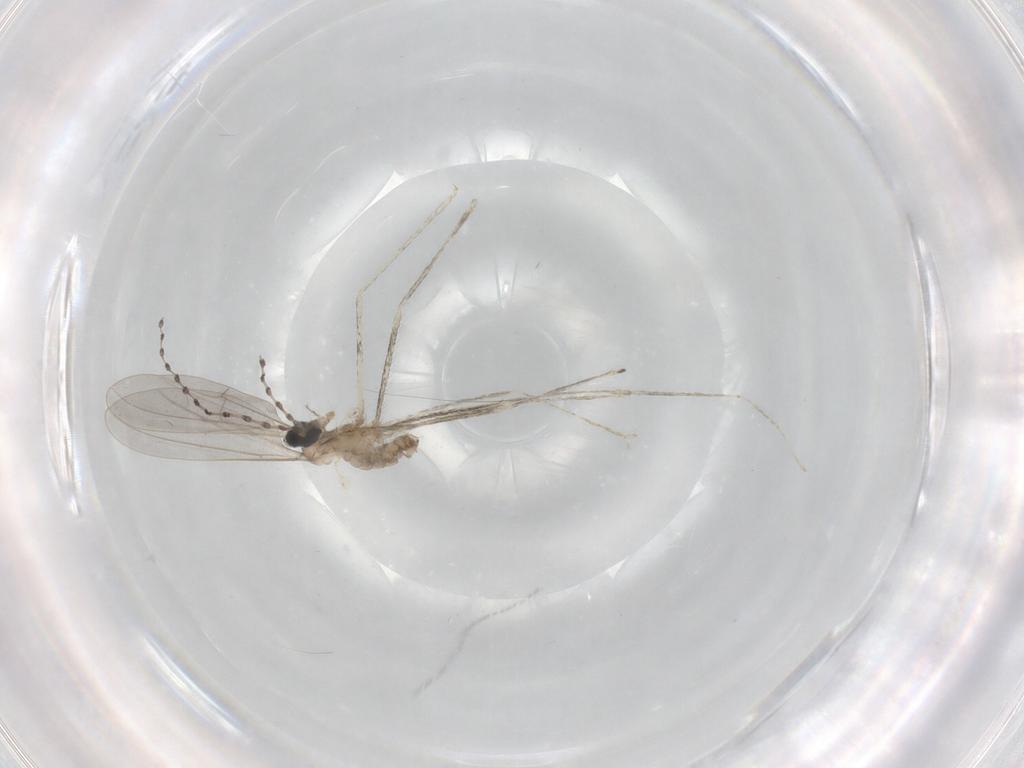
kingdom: Animalia
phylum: Arthropoda
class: Insecta
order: Diptera
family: Cecidomyiidae
